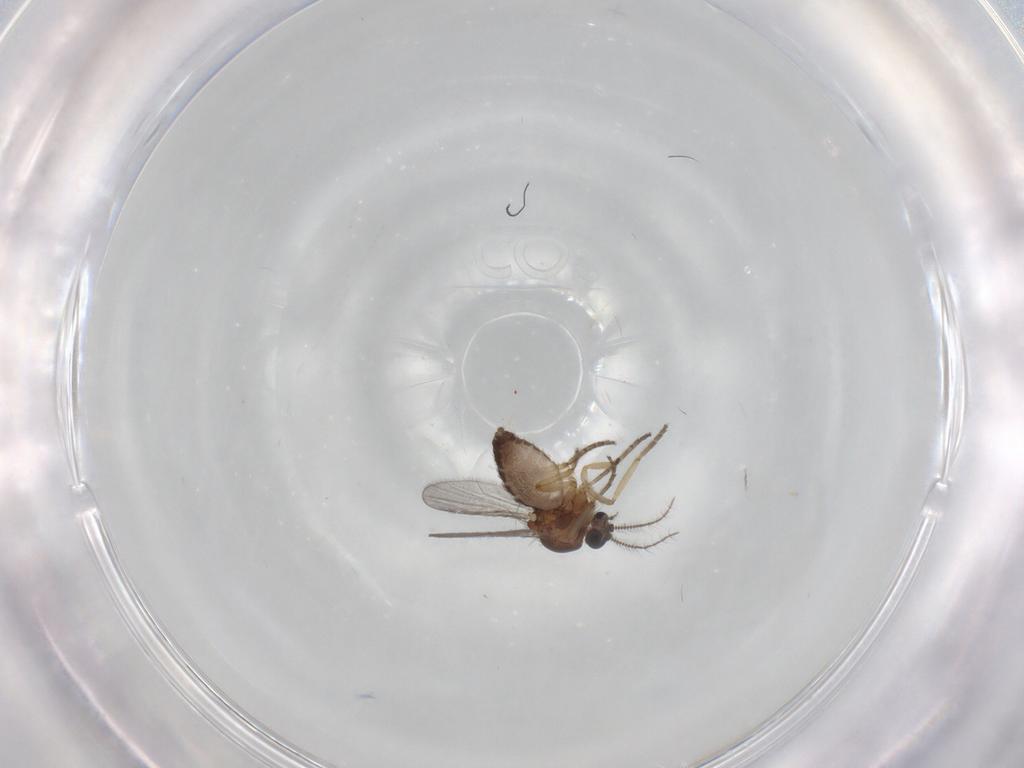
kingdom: Animalia
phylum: Arthropoda
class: Insecta
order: Diptera
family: Ceratopogonidae
